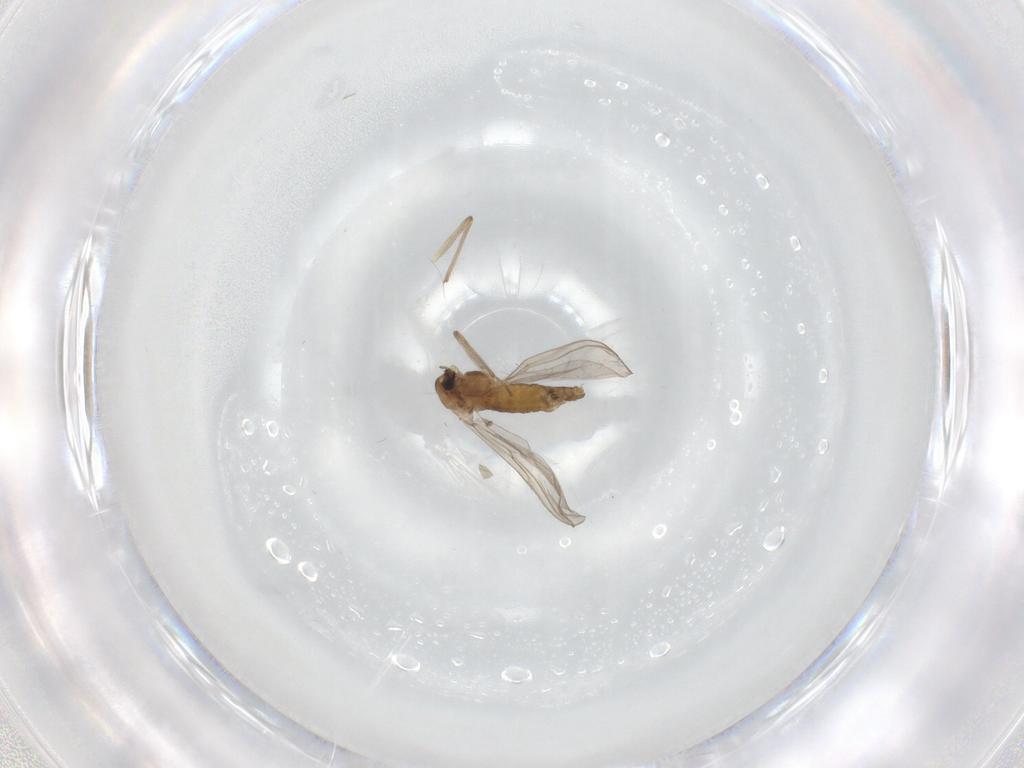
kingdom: Animalia
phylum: Arthropoda
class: Insecta
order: Diptera
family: Chironomidae
